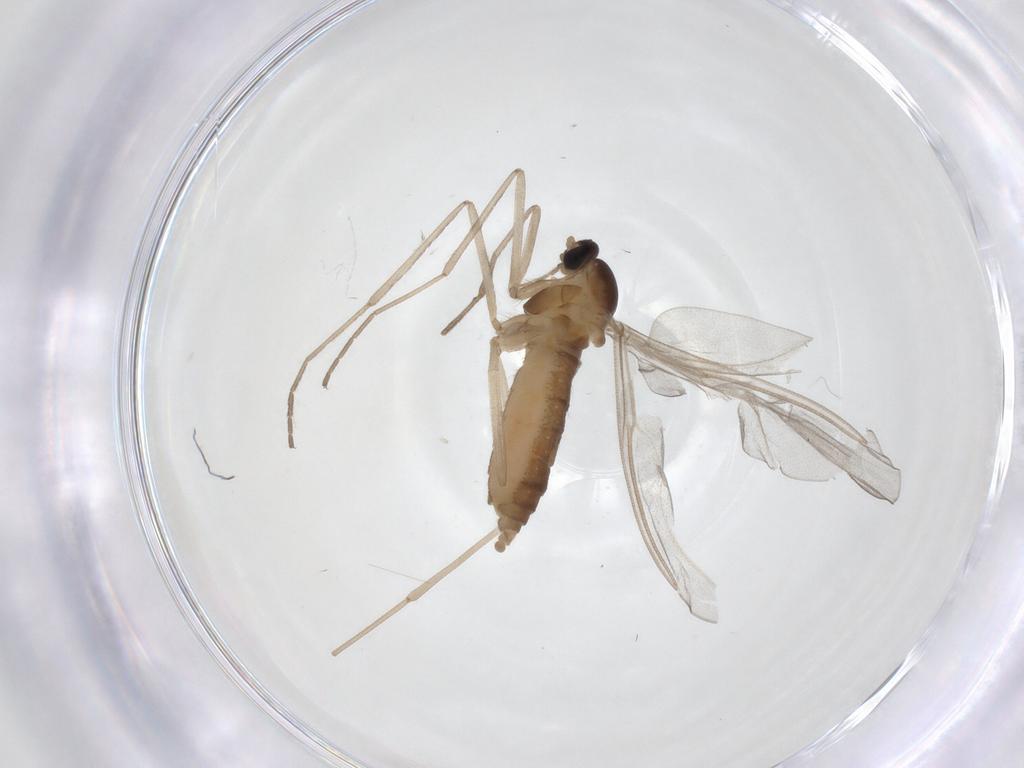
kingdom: Animalia
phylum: Arthropoda
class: Insecta
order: Diptera
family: Cecidomyiidae
